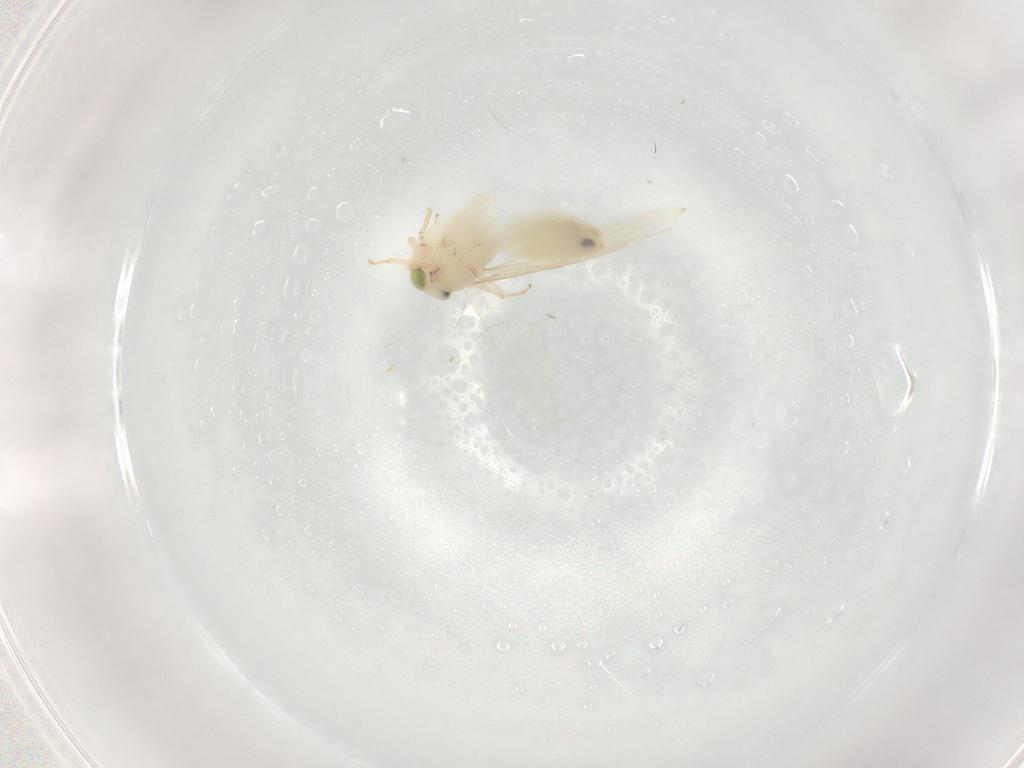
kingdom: Animalia
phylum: Arthropoda
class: Insecta
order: Psocodea
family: Lepidopsocidae
